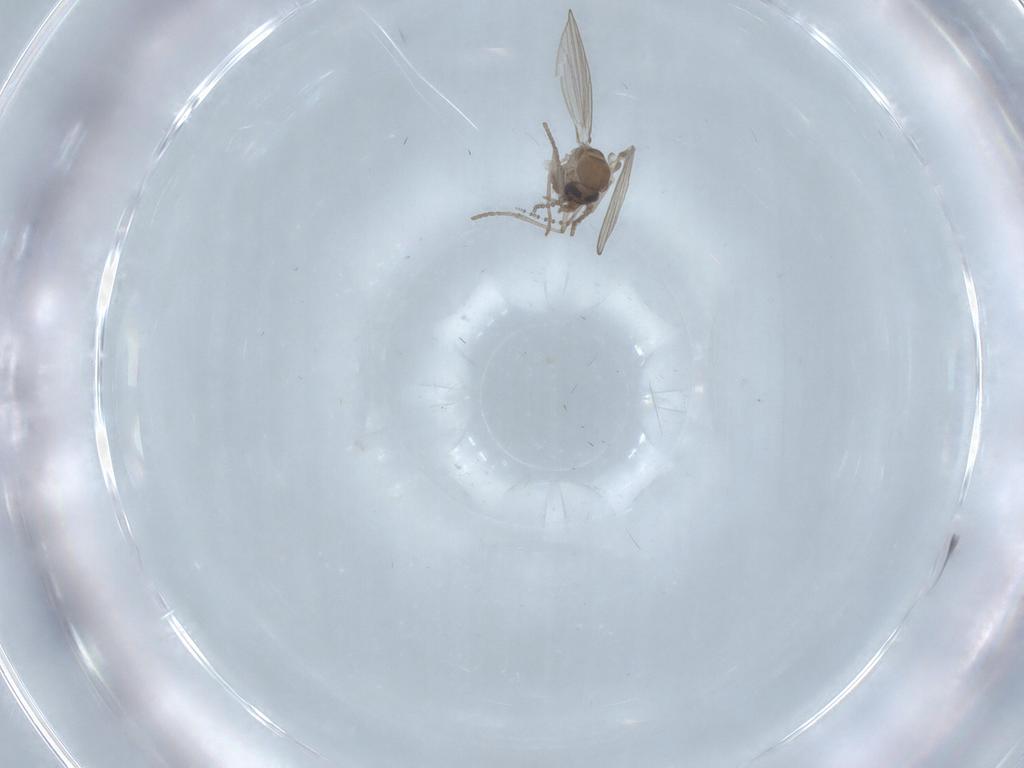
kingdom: Animalia
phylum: Arthropoda
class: Insecta
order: Diptera
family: Psychodidae
